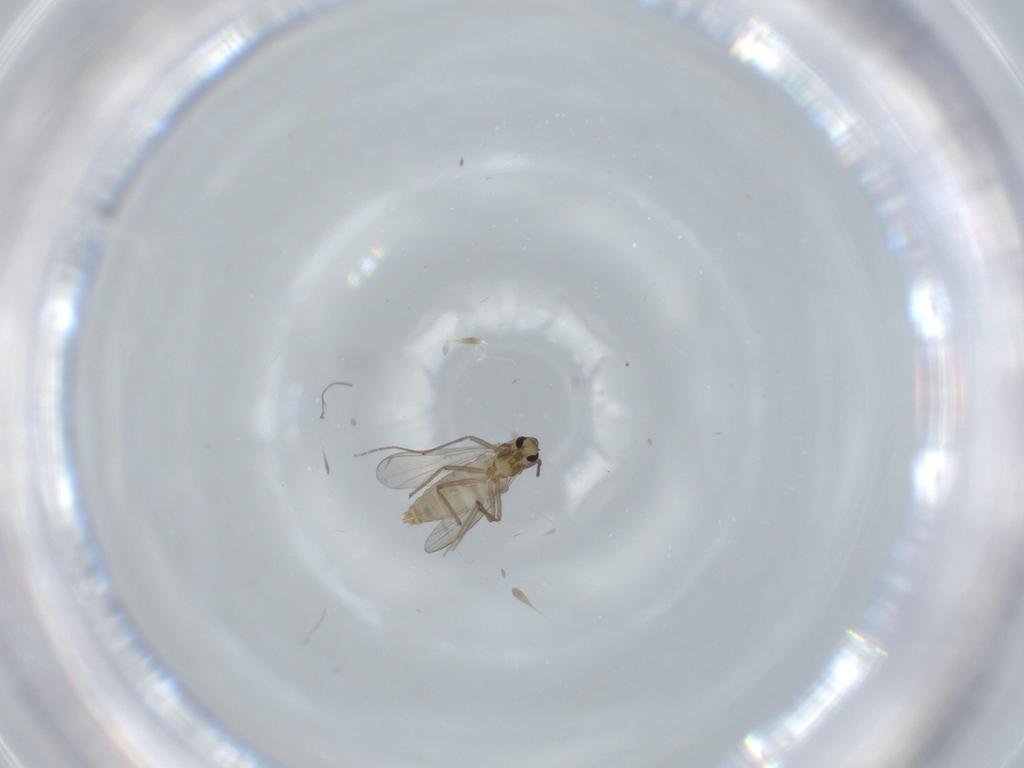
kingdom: Animalia
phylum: Arthropoda
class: Insecta
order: Diptera
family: Chironomidae
